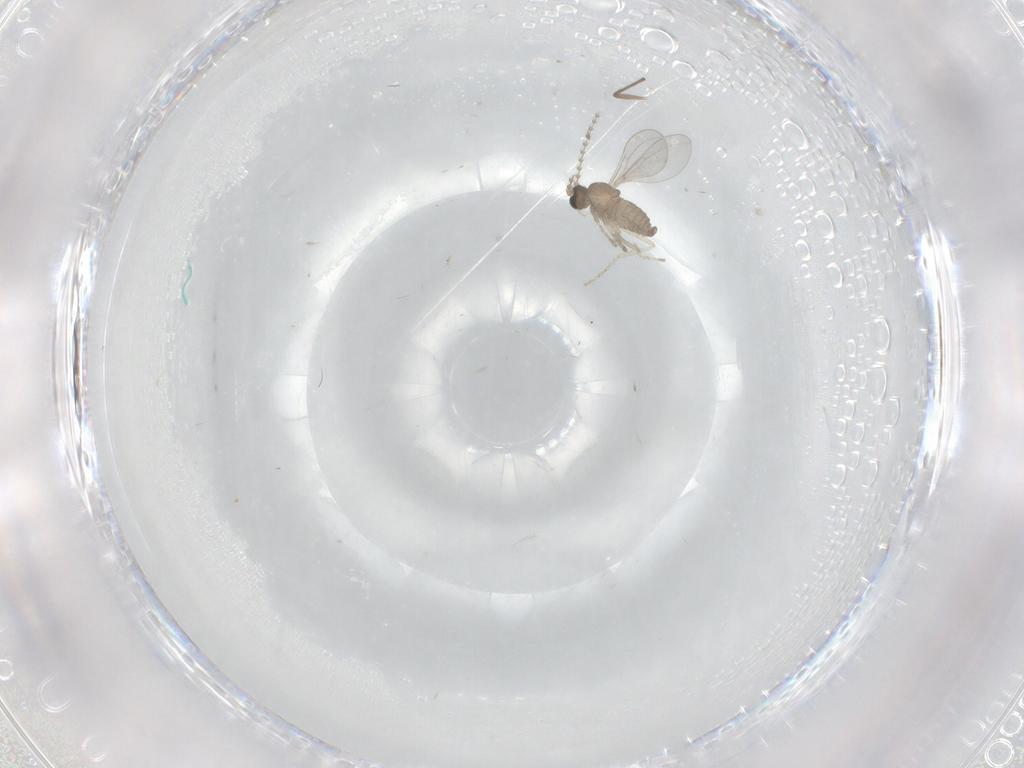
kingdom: Animalia
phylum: Arthropoda
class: Insecta
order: Diptera
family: Cecidomyiidae
